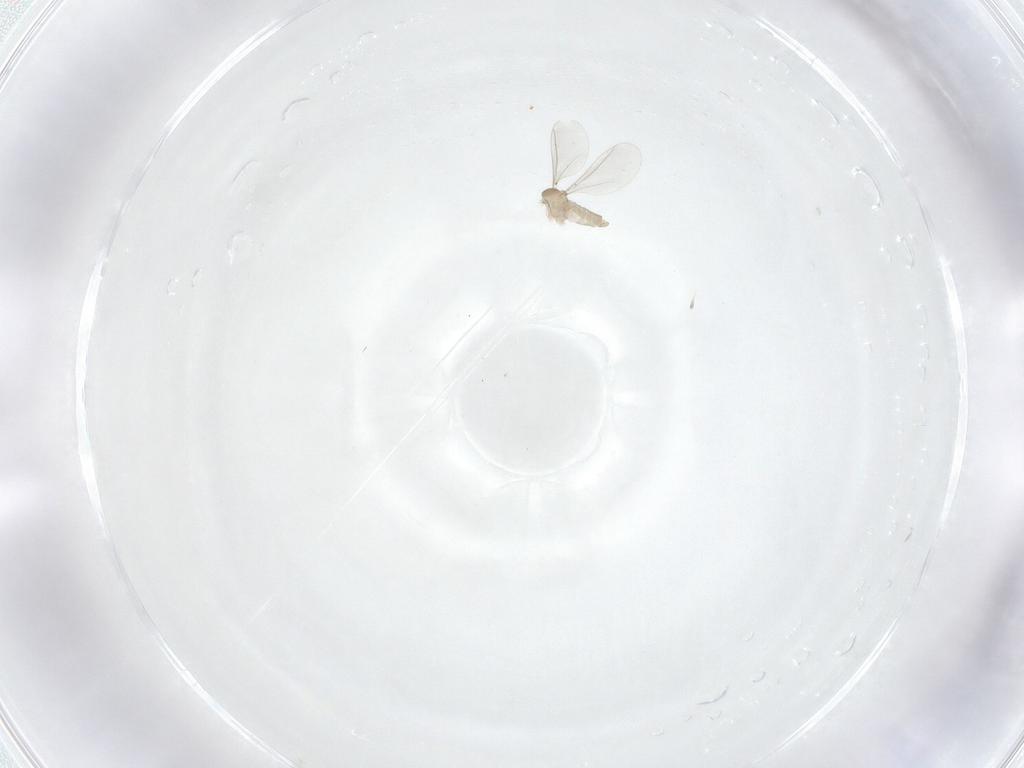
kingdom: Animalia
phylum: Arthropoda
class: Insecta
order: Diptera
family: Cecidomyiidae
